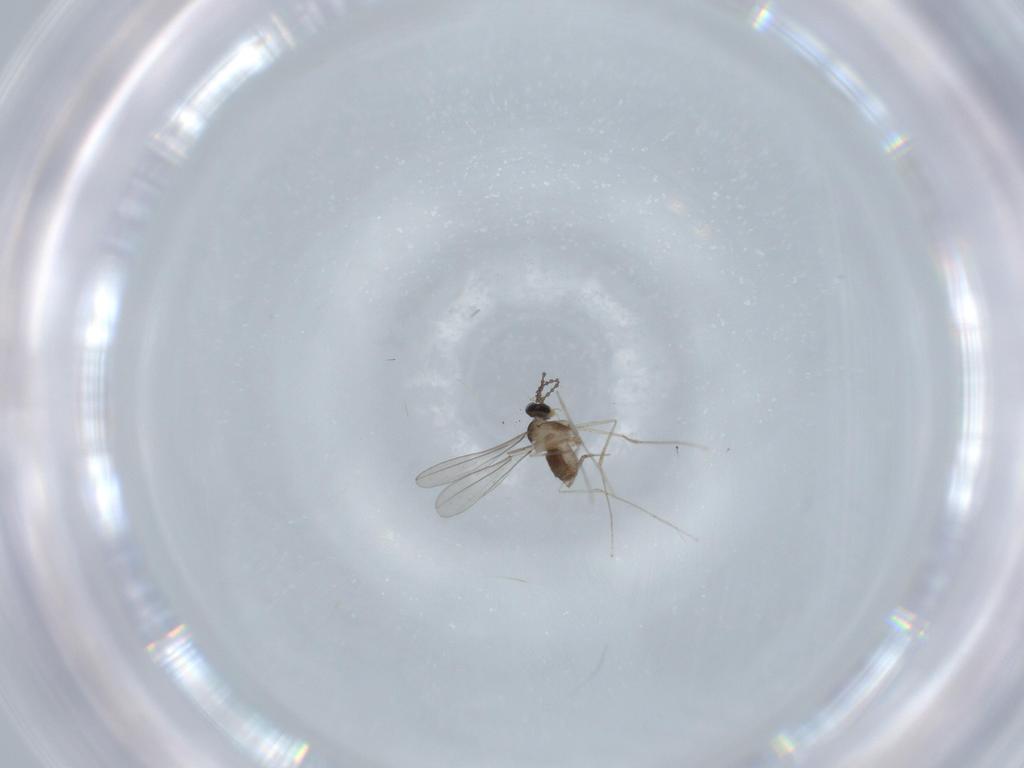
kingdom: Animalia
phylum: Arthropoda
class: Insecta
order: Diptera
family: Cecidomyiidae
